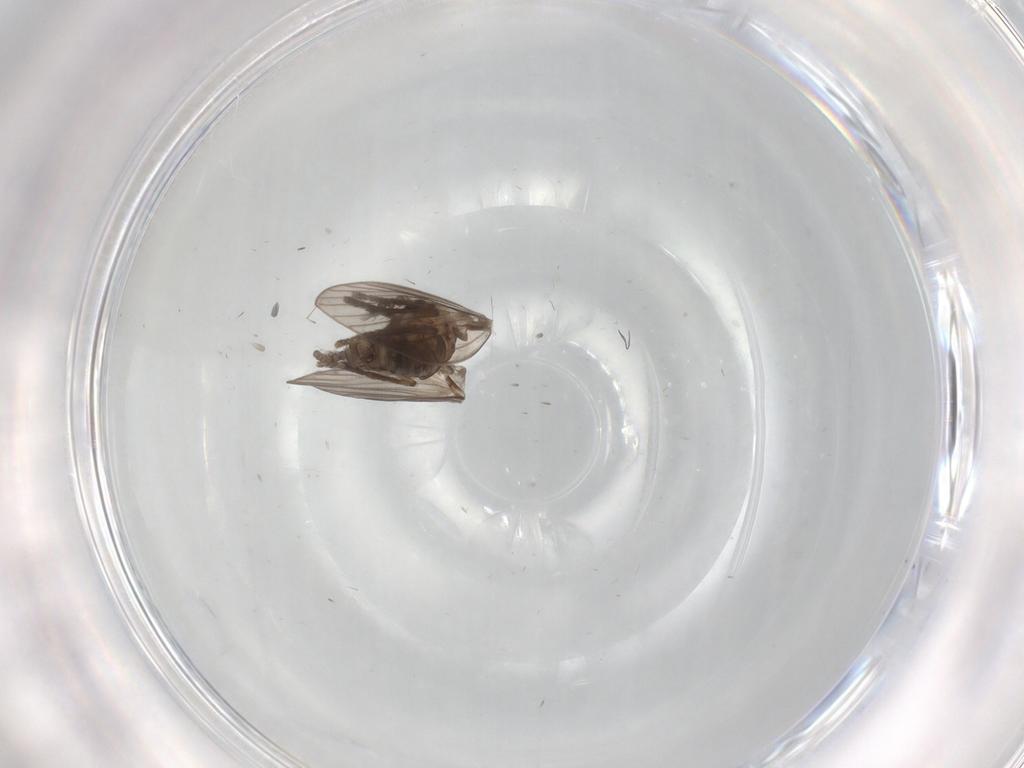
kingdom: Animalia
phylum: Arthropoda
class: Insecta
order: Diptera
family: Psychodidae
